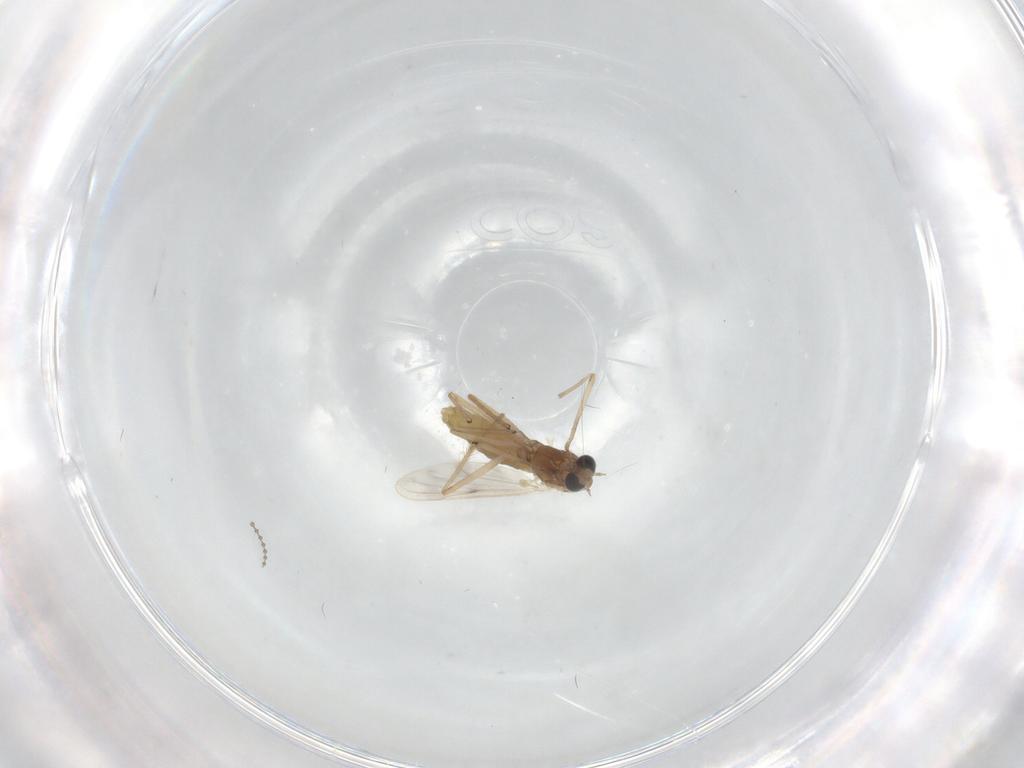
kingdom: Animalia
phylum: Arthropoda
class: Insecta
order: Diptera
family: Chironomidae
